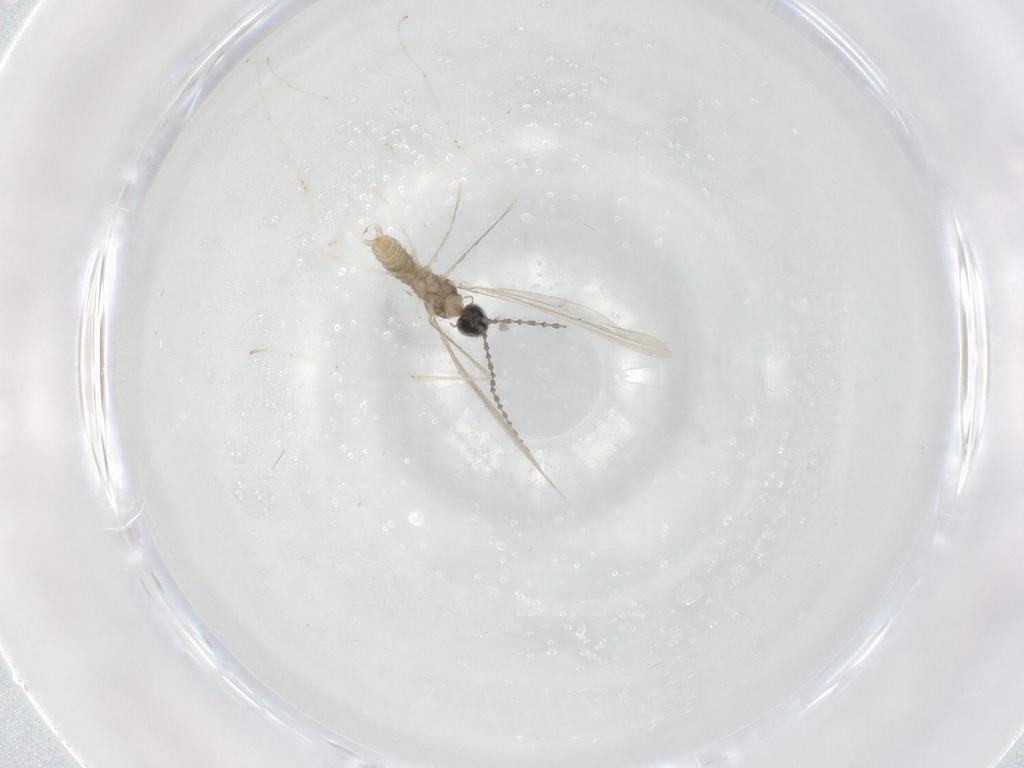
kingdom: Animalia
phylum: Arthropoda
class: Insecta
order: Diptera
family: Cecidomyiidae
